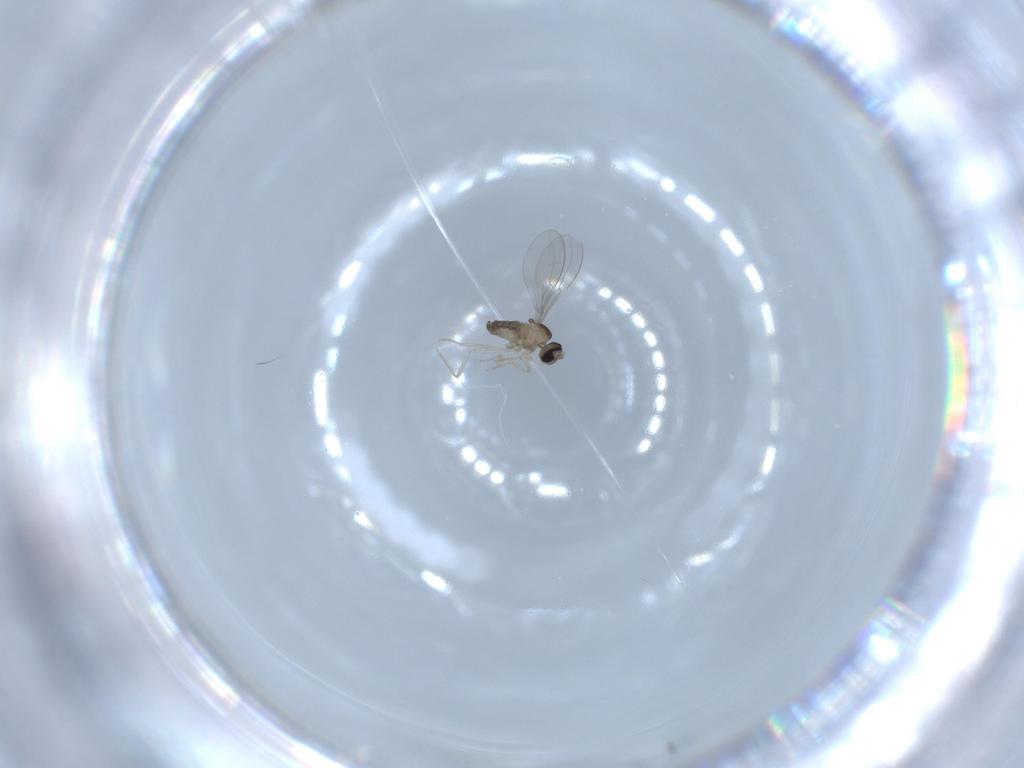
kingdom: Animalia
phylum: Arthropoda
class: Insecta
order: Diptera
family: Cecidomyiidae
